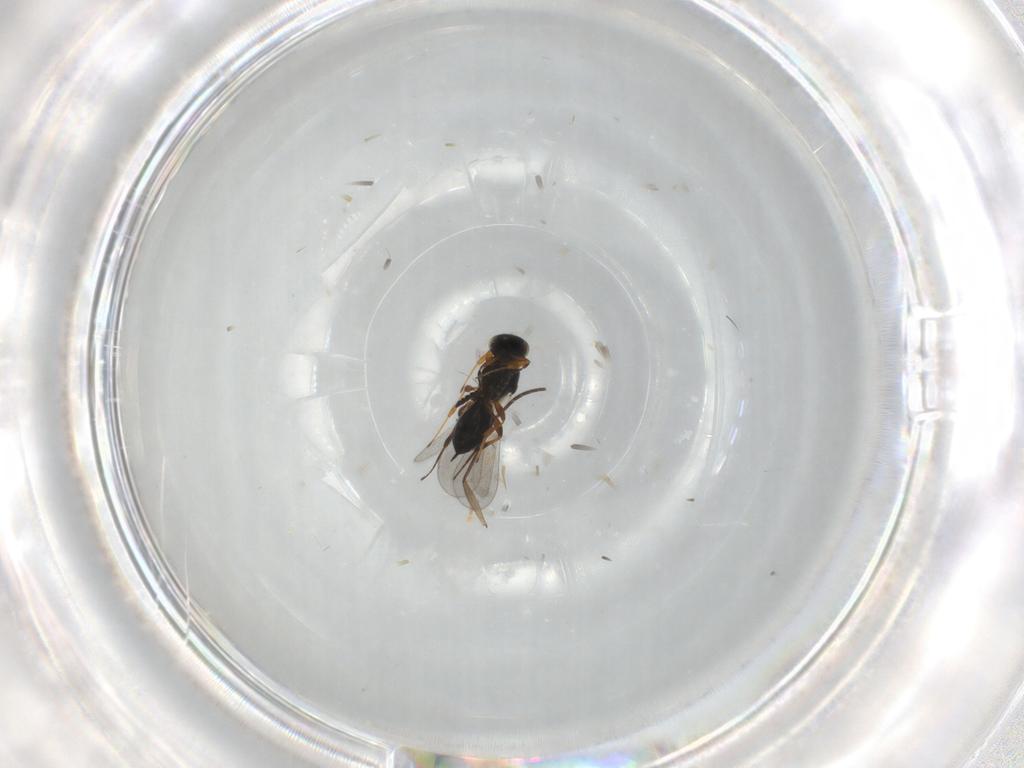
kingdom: Animalia
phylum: Arthropoda
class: Insecta
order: Hymenoptera
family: Platygastridae
